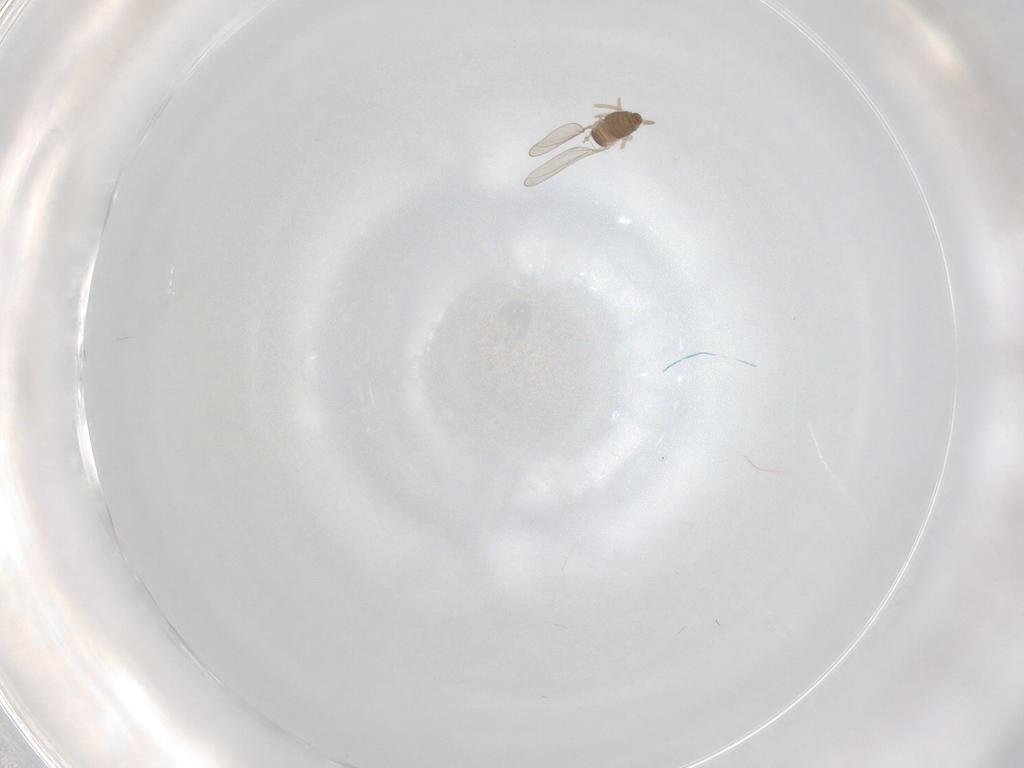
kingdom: Animalia
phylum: Arthropoda
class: Insecta
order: Diptera
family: Cecidomyiidae
